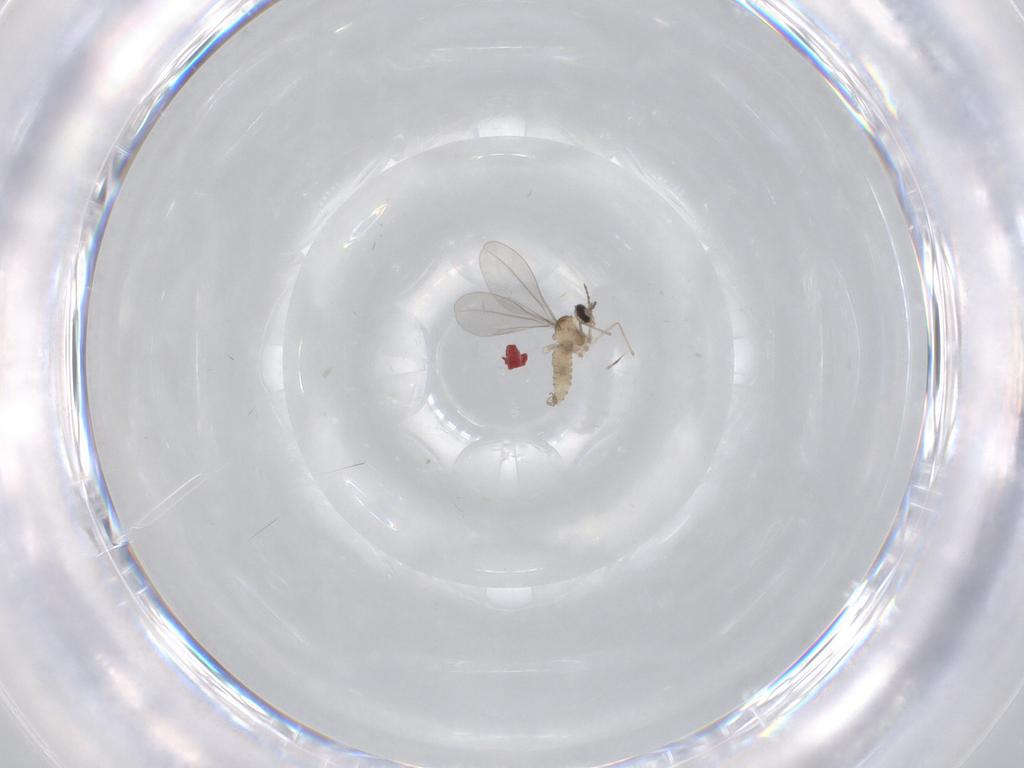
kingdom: Animalia
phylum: Arthropoda
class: Insecta
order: Diptera
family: Cecidomyiidae
